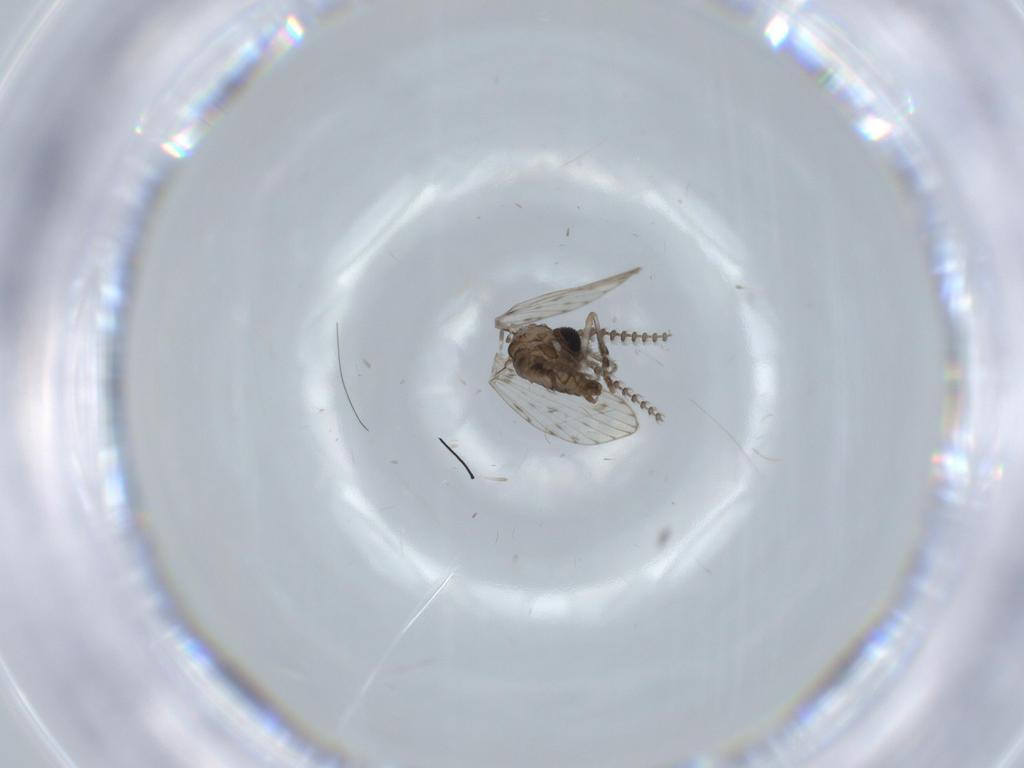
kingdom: Animalia
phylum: Arthropoda
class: Insecta
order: Diptera
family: Psychodidae
